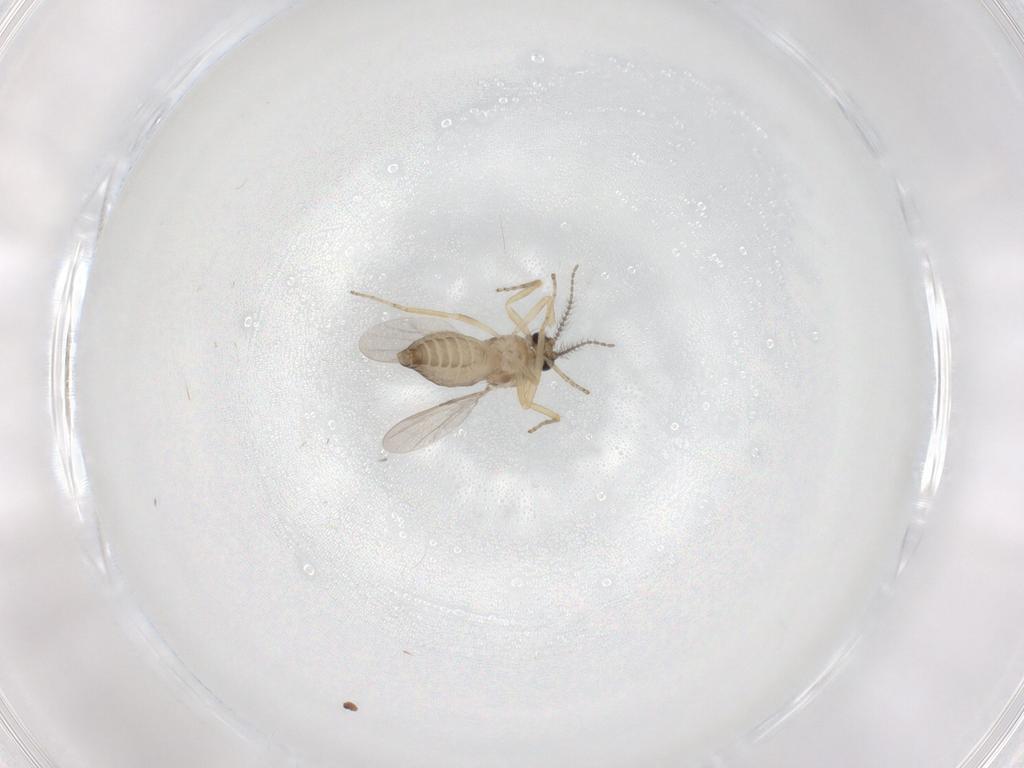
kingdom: Animalia
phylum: Arthropoda
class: Insecta
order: Diptera
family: Ceratopogonidae
